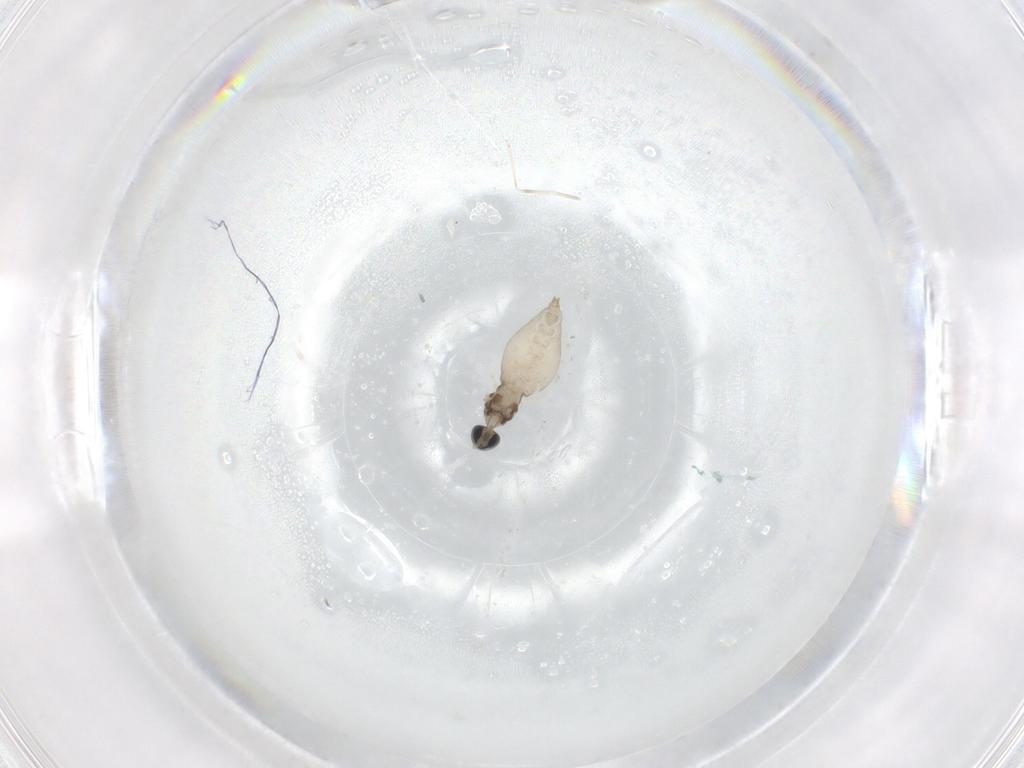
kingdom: Animalia
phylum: Arthropoda
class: Insecta
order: Diptera
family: Cecidomyiidae
